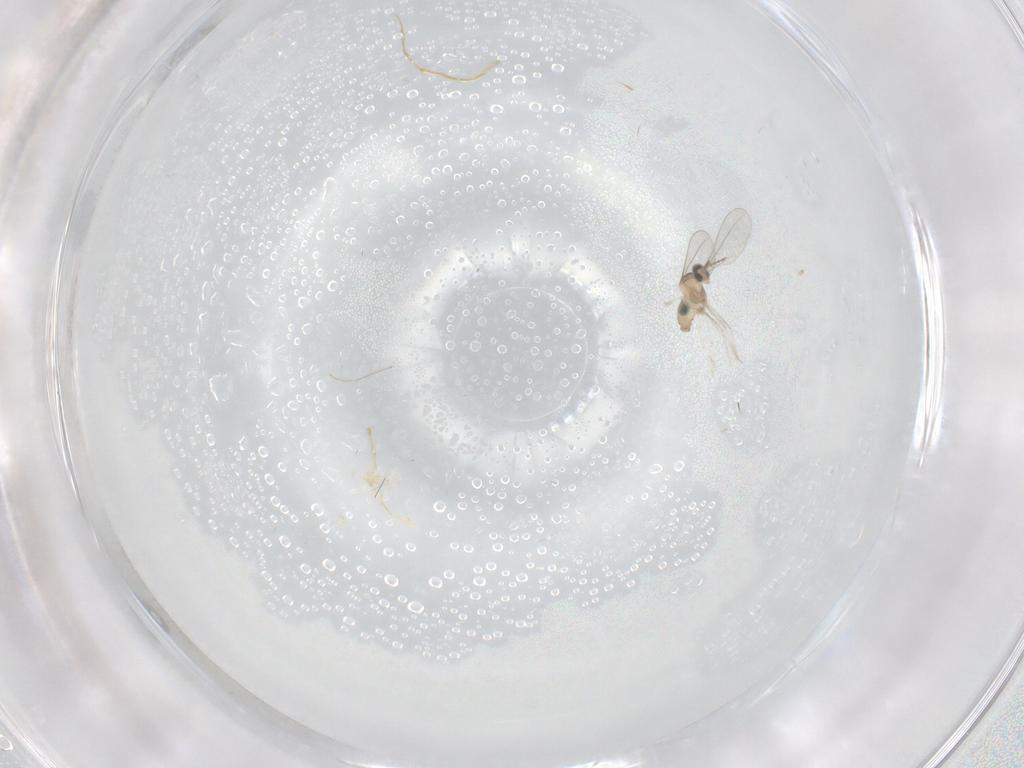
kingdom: Animalia
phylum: Arthropoda
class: Insecta
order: Diptera
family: Cecidomyiidae
